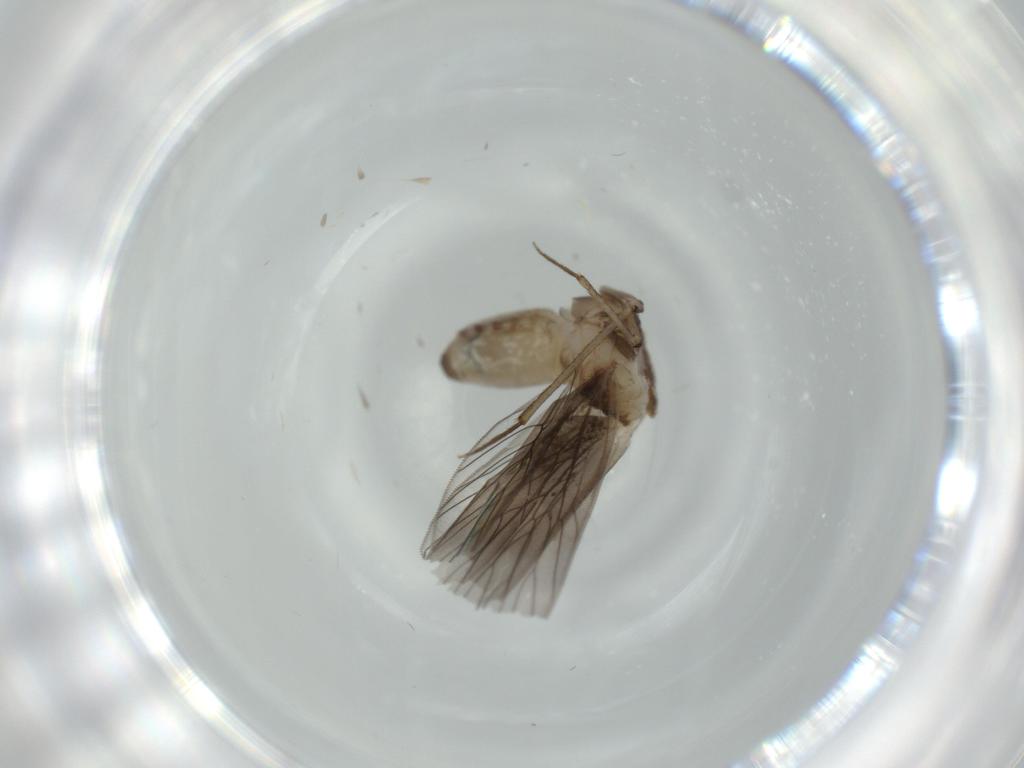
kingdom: Animalia
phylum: Arthropoda
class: Insecta
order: Psocodea
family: Lepidopsocidae
